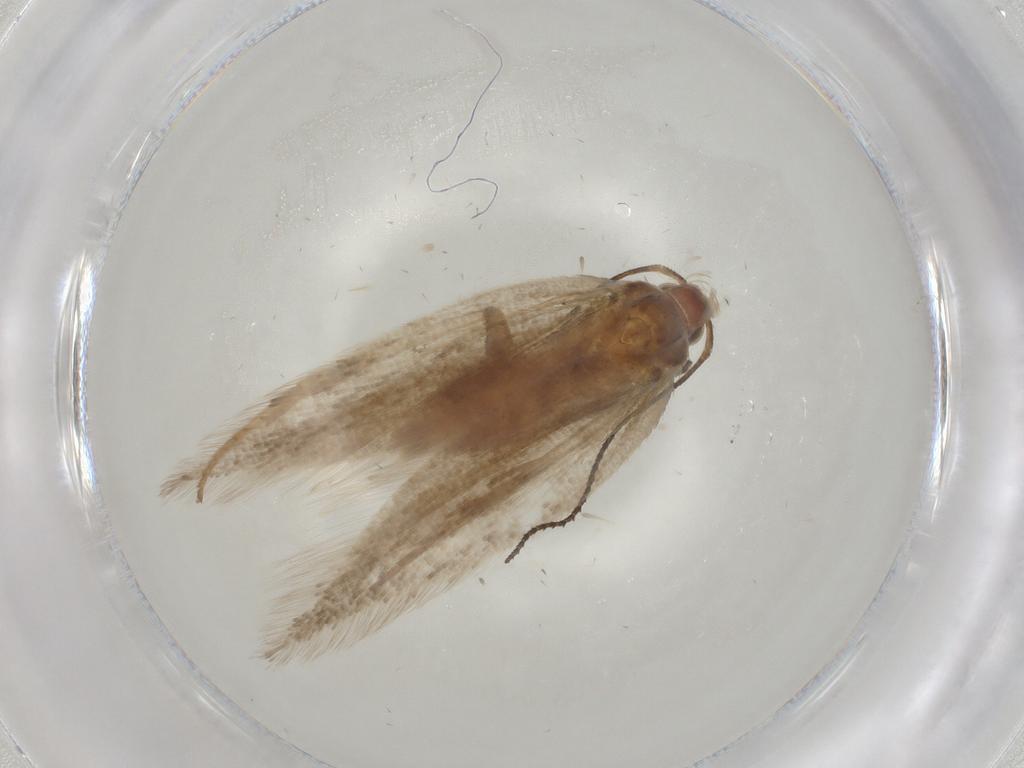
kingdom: Animalia
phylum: Arthropoda
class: Insecta
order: Lepidoptera
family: Gelechiidae
